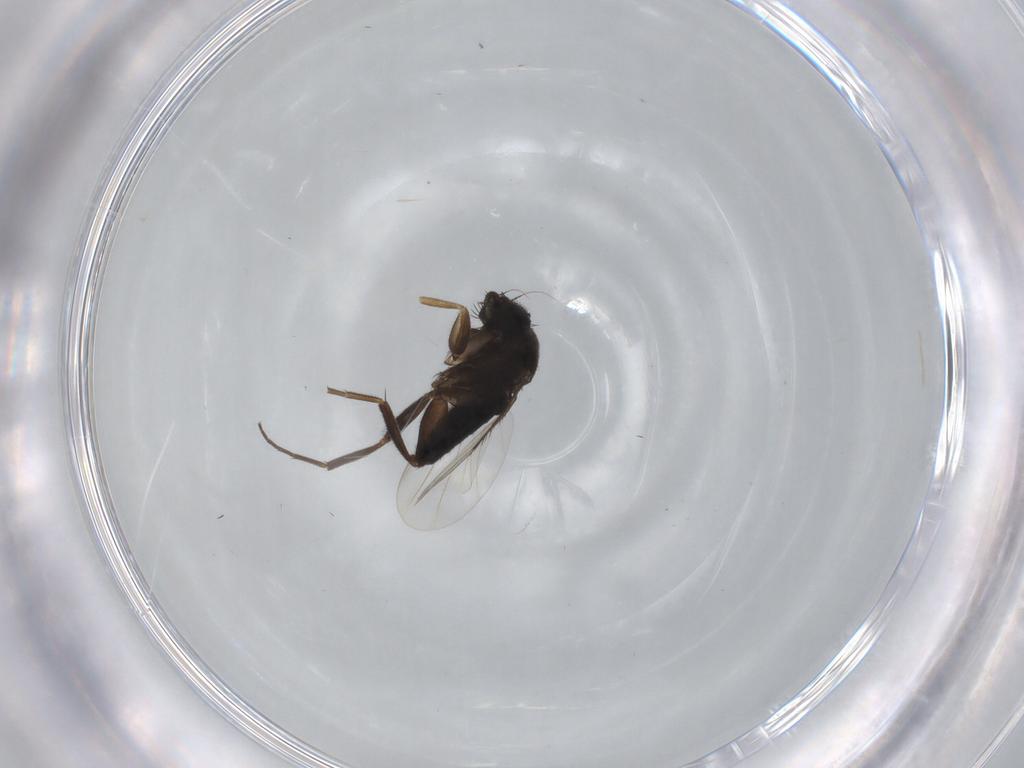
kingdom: Animalia
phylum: Arthropoda
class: Insecta
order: Diptera
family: Phoridae
